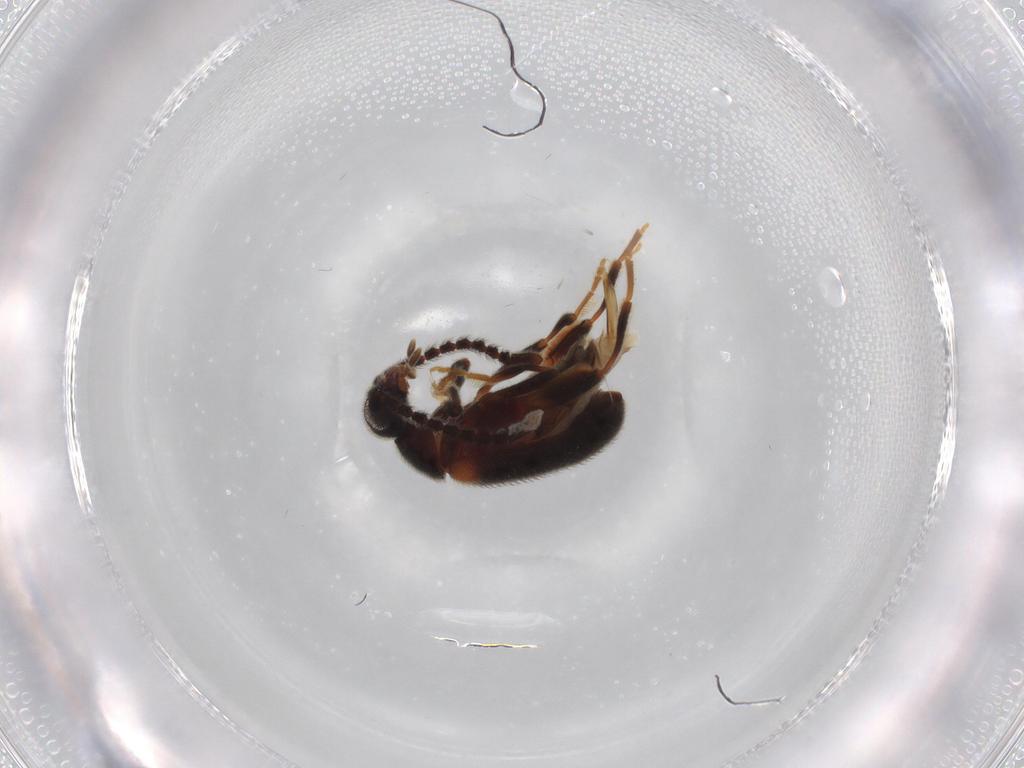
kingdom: Animalia
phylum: Arthropoda
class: Insecta
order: Coleoptera
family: Aderidae
